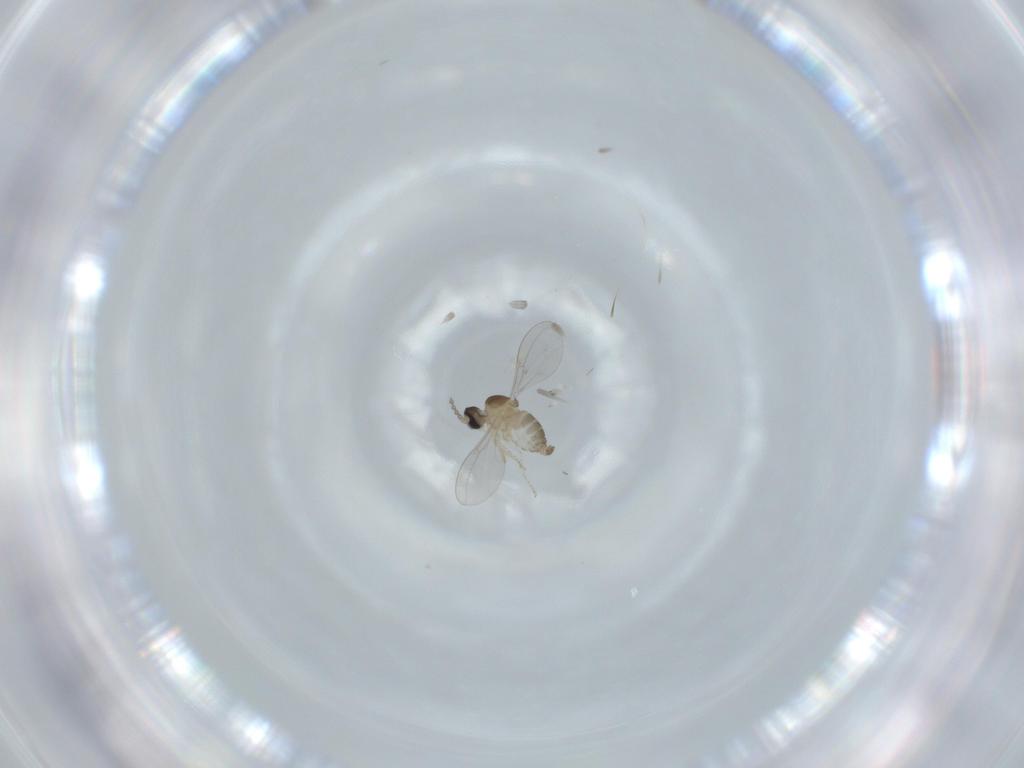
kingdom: Animalia
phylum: Arthropoda
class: Insecta
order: Diptera
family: Cecidomyiidae
